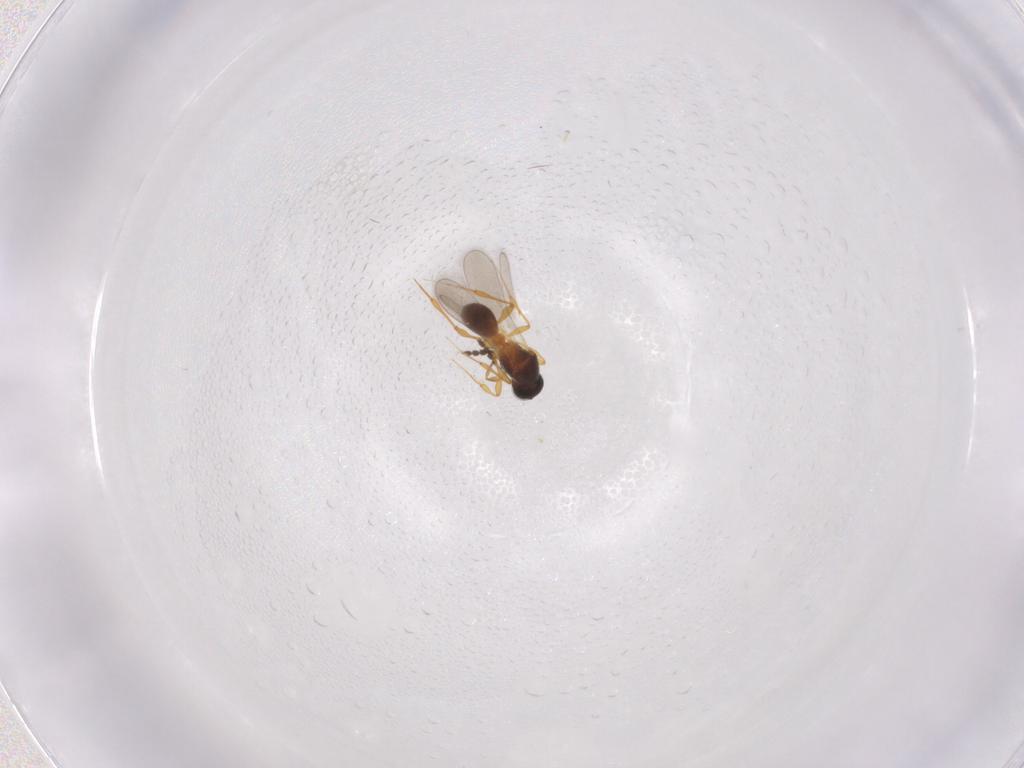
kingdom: Animalia
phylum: Arthropoda
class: Insecta
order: Hymenoptera
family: Platygastridae
